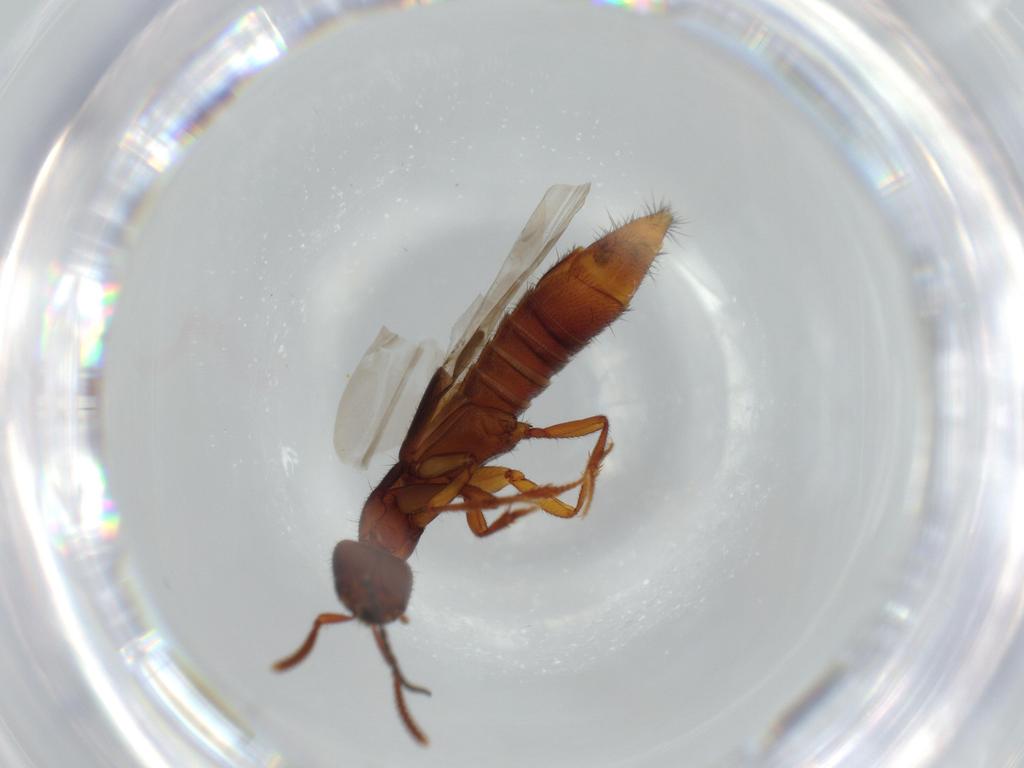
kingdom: Animalia
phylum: Arthropoda
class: Insecta
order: Coleoptera
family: Staphylinidae
